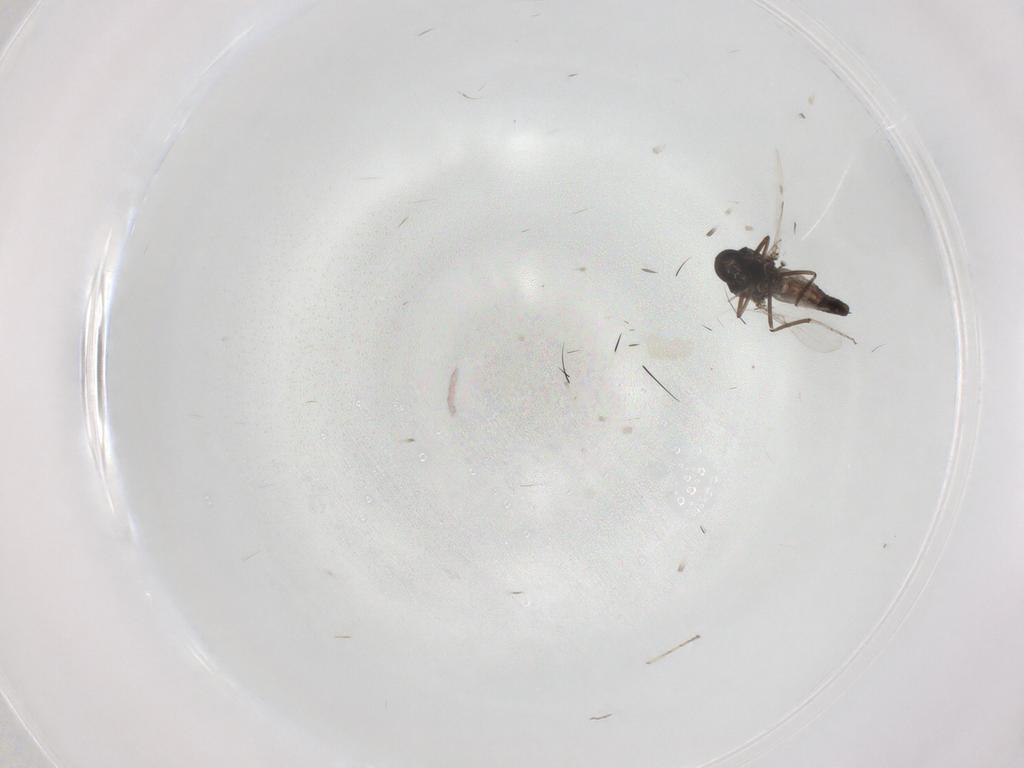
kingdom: Animalia
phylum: Arthropoda
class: Insecta
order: Diptera
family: Ceratopogonidae
